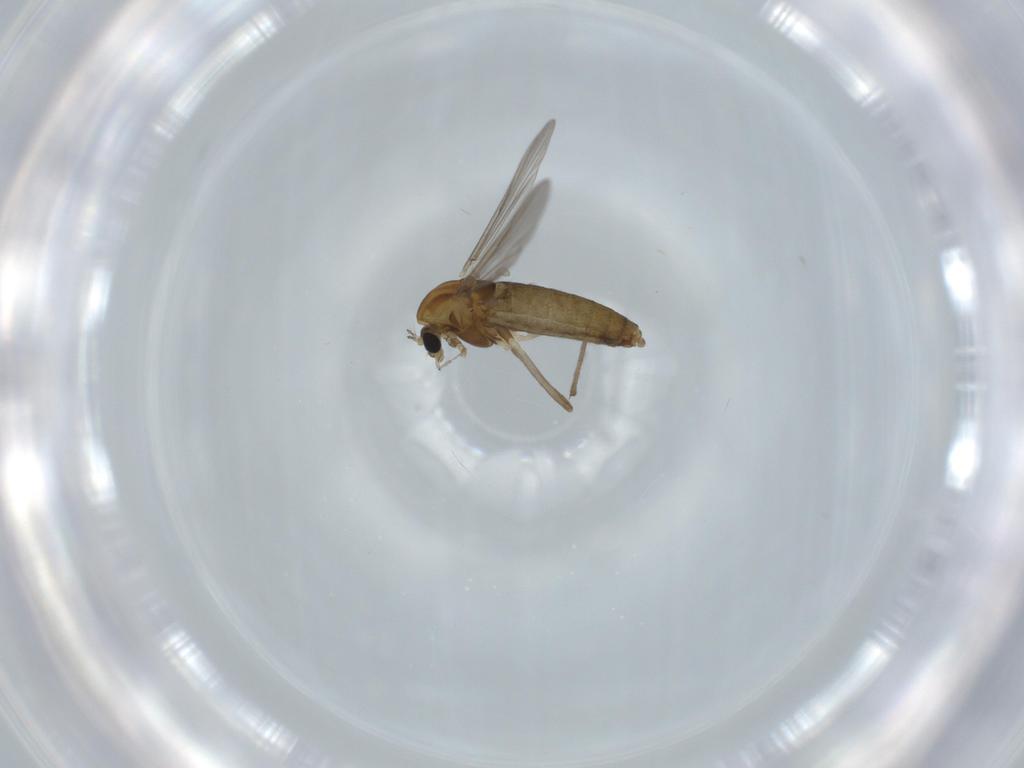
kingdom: Animalia
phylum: Arthropoda
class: Insecta
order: Diptera
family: Chironomidae
